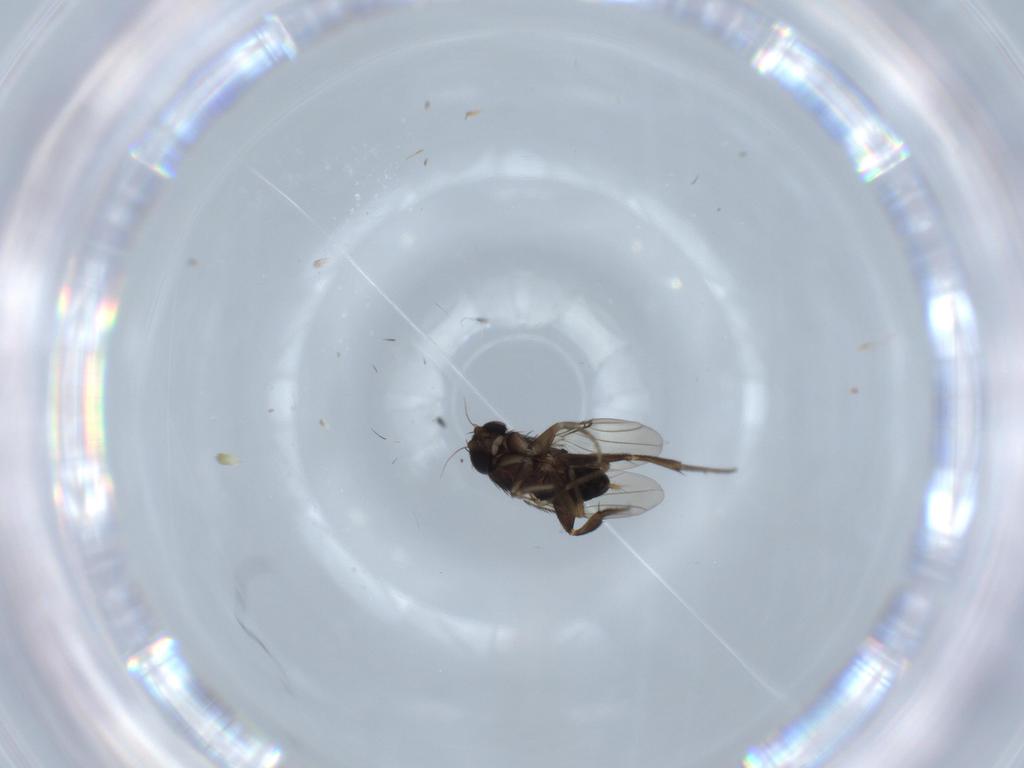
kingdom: Animalia
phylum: Arthropoda
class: Insecta
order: Diptera
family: Phoridae
